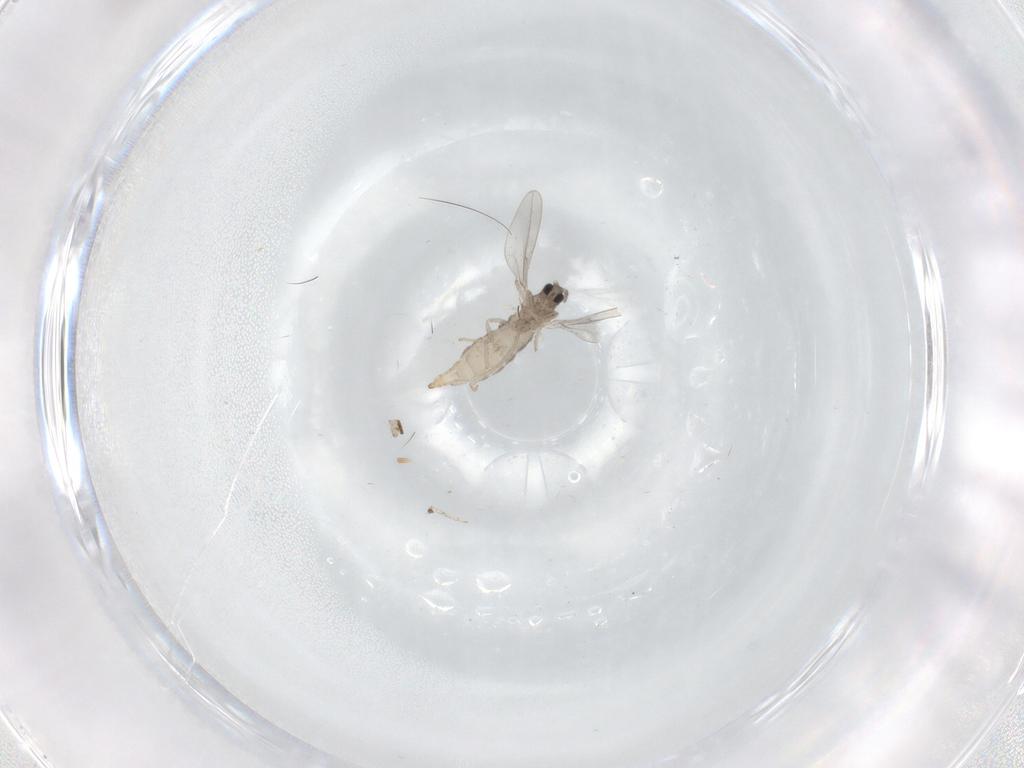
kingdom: Animalia
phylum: Arthropoda
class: Insecta
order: Diptera
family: Cecidomyiidae
